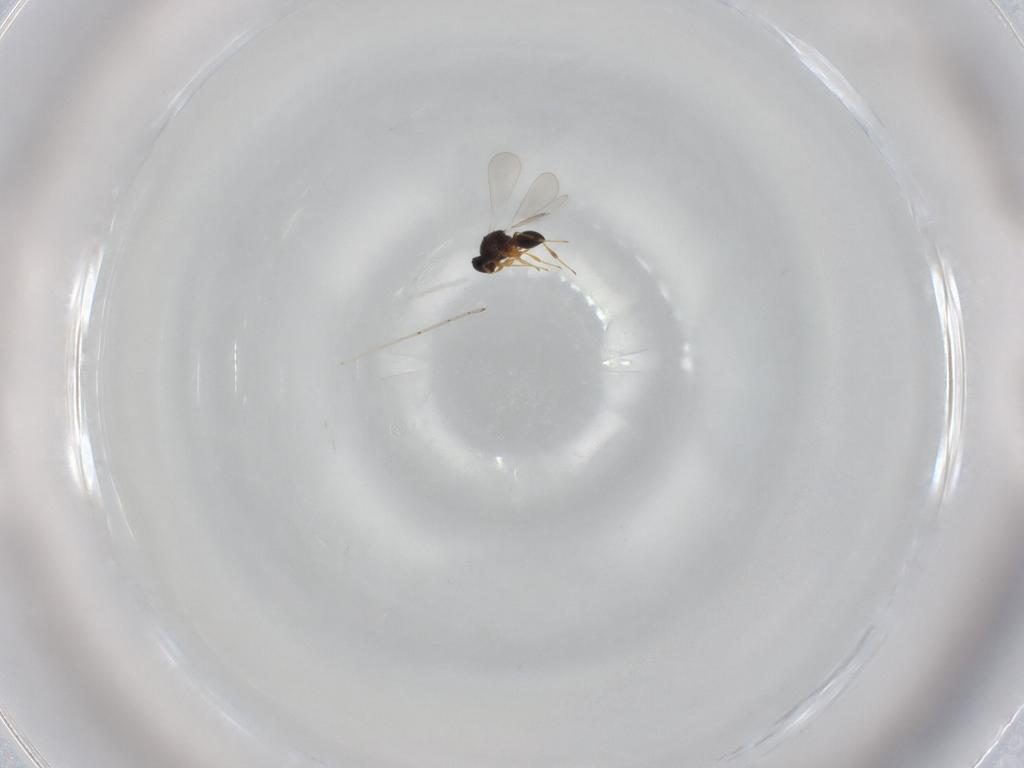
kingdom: Animalia
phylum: Arthropoda
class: Insecta
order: Hymenoptera
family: Platygastridae
